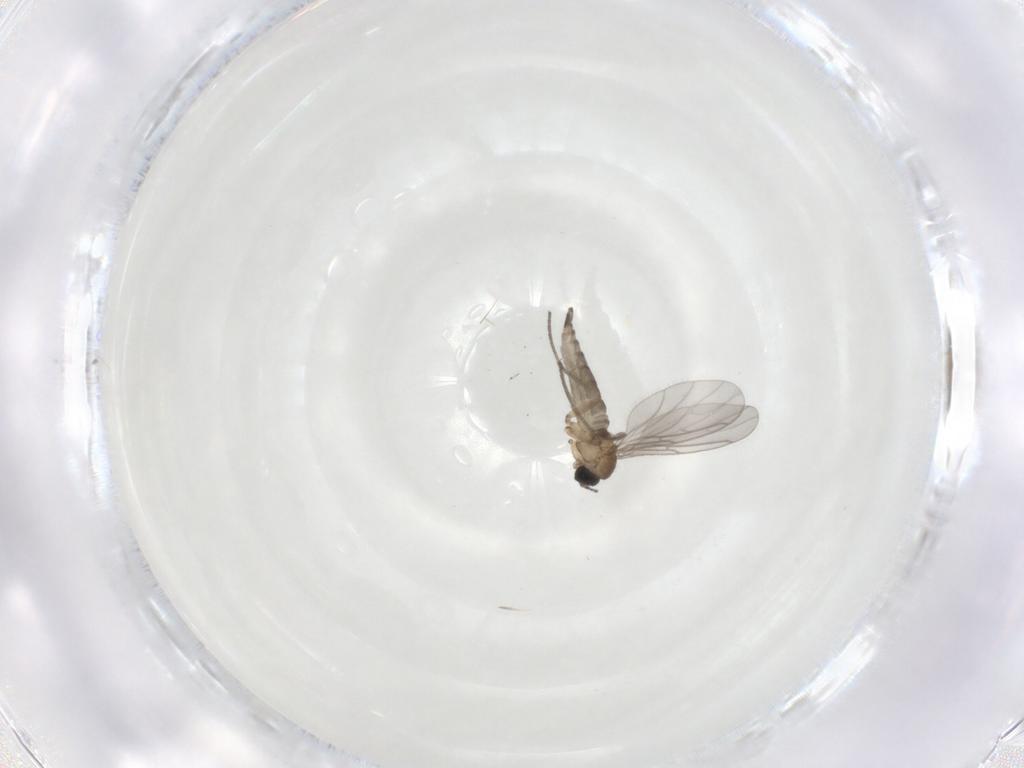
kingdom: Animalia
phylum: Arthropoda
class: Insecta
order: Diptera
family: Sciaridae
